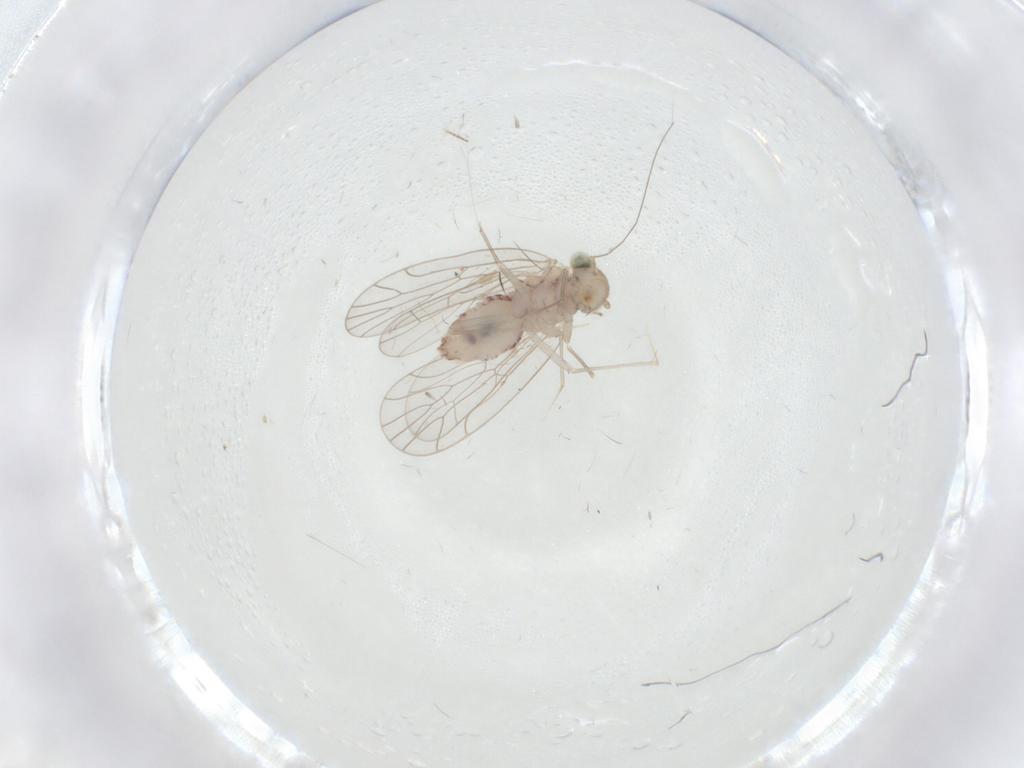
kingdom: Animalia
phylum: Arthropoda
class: Insecta
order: Psocodea
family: Amphientomidae
